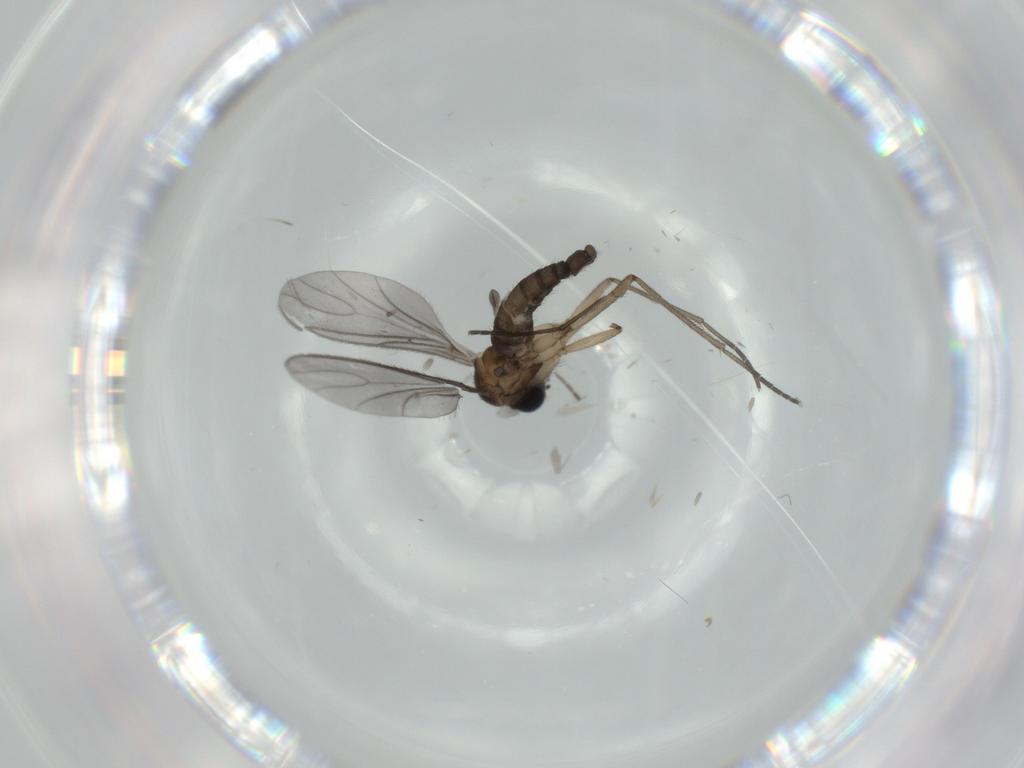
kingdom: Animalia
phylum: Arthropoda
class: Insecta
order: Diptera
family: Sciaridae
